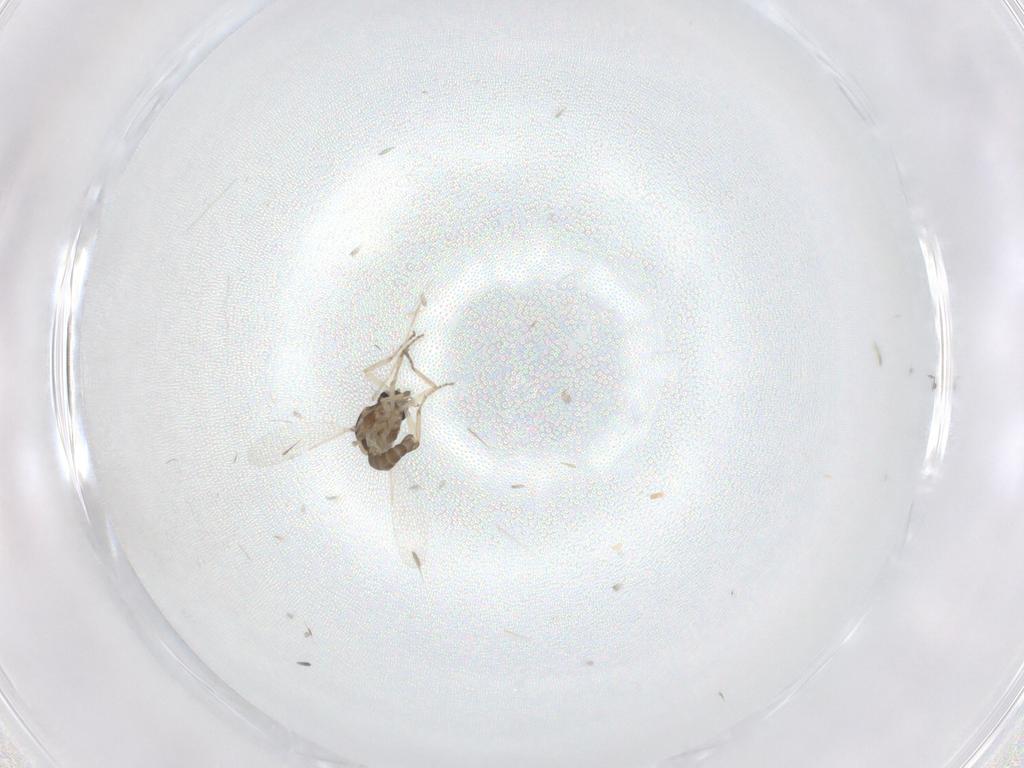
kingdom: Animalia
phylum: Arthropoda
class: Insecta
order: Diptera
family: Ceratopogonidae
